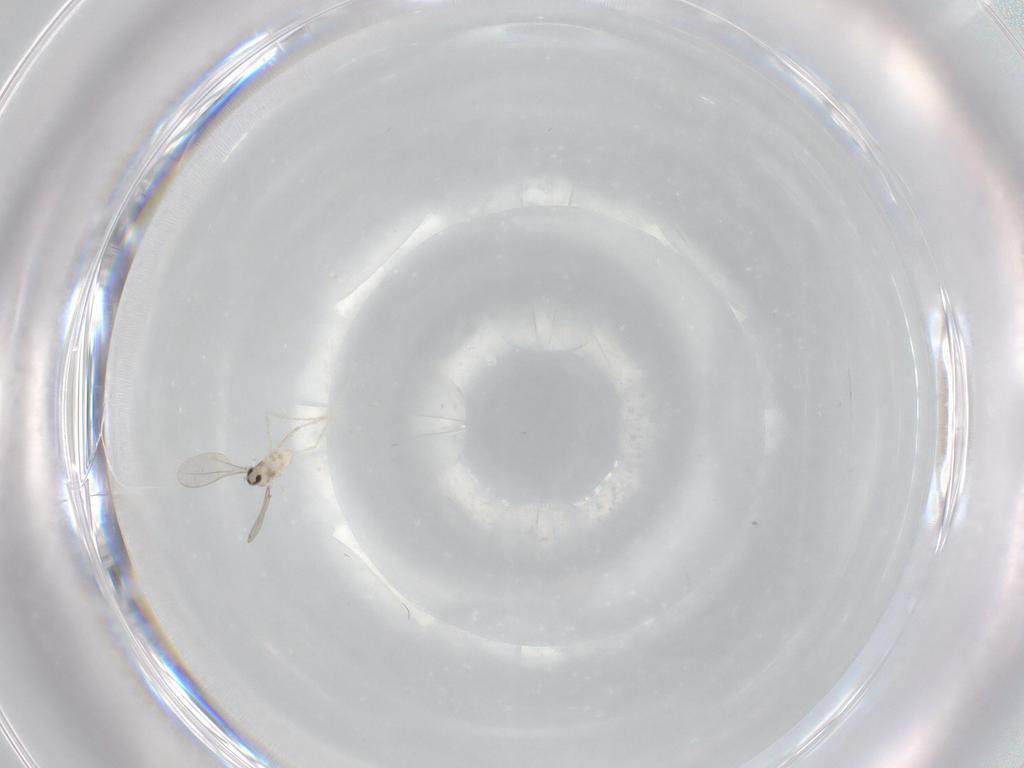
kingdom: Animalia
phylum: Arthropoda
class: Insecta
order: Diptera
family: Cecidomyiidae
